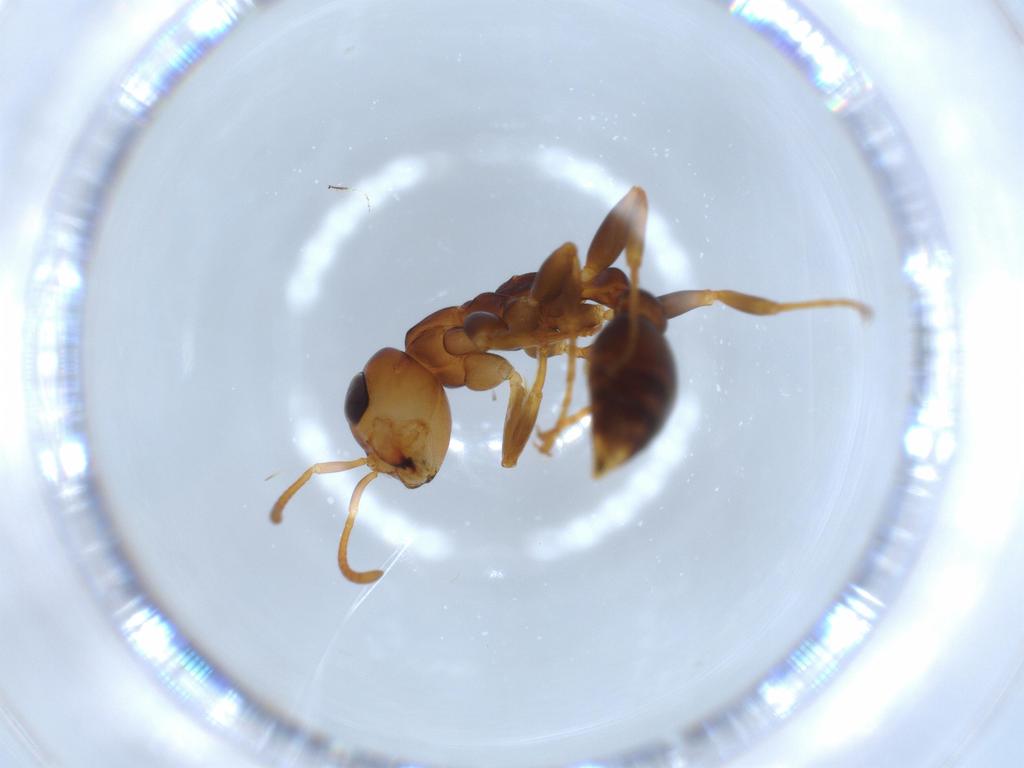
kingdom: Animalia
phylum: Arthropoda
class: Insecta
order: Hymenoptera
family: Formicidae
